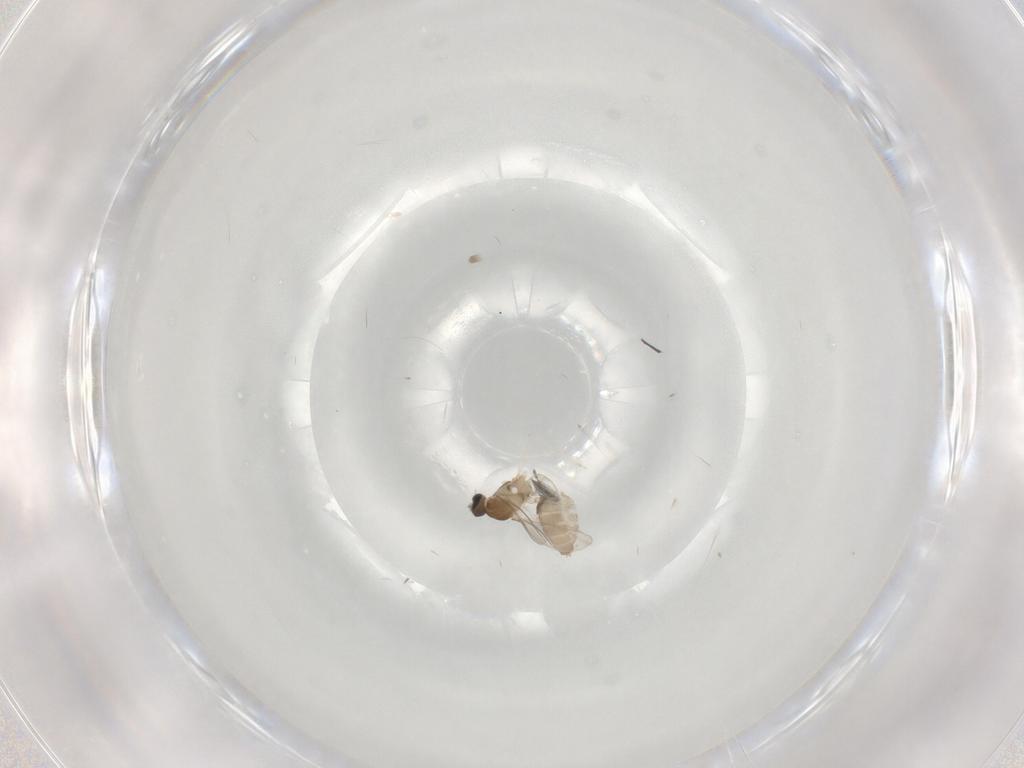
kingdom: Animalia
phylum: Arthropoda
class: Insecta
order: Diptera
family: Cecidomyiidae
